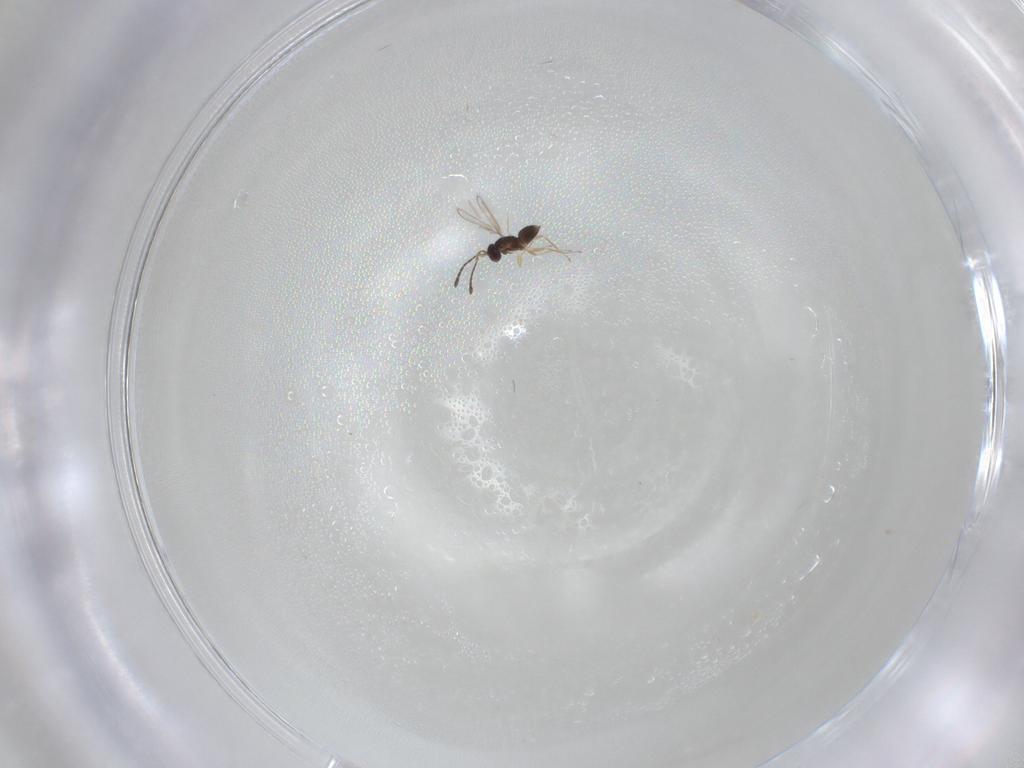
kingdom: Animalia
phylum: Arthropoda
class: Insecta
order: Hymenoptera
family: Mymaridae
